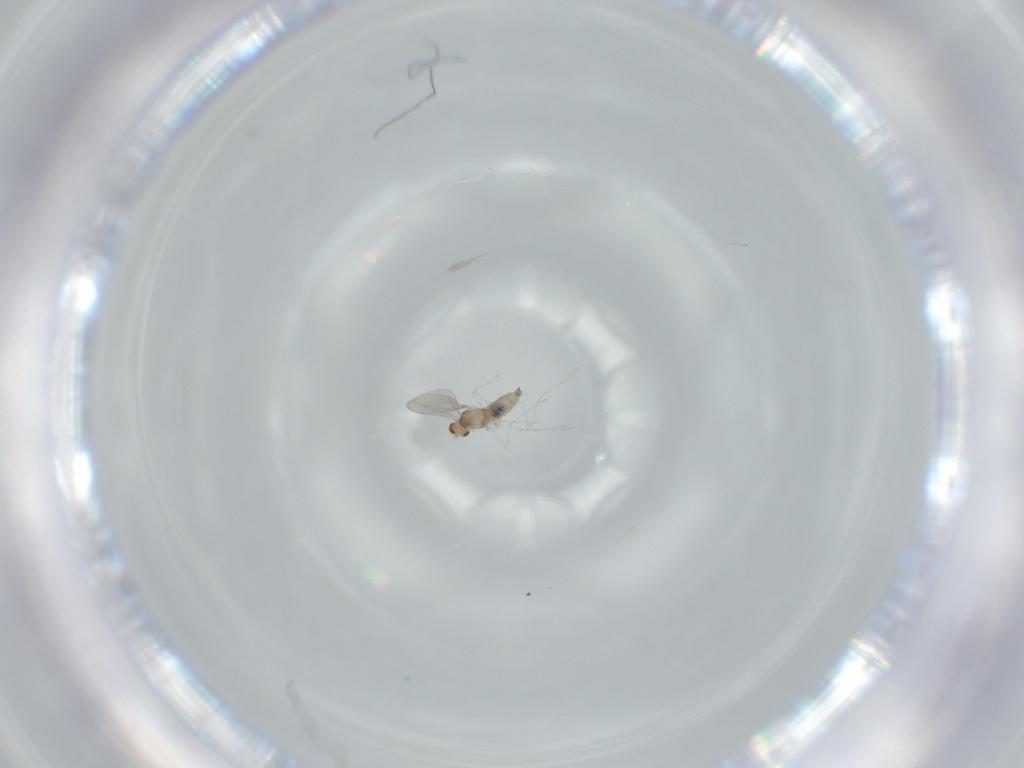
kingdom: Animalia
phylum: Arthropoda
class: Insecta
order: Diptera
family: Cecidomyiidae
